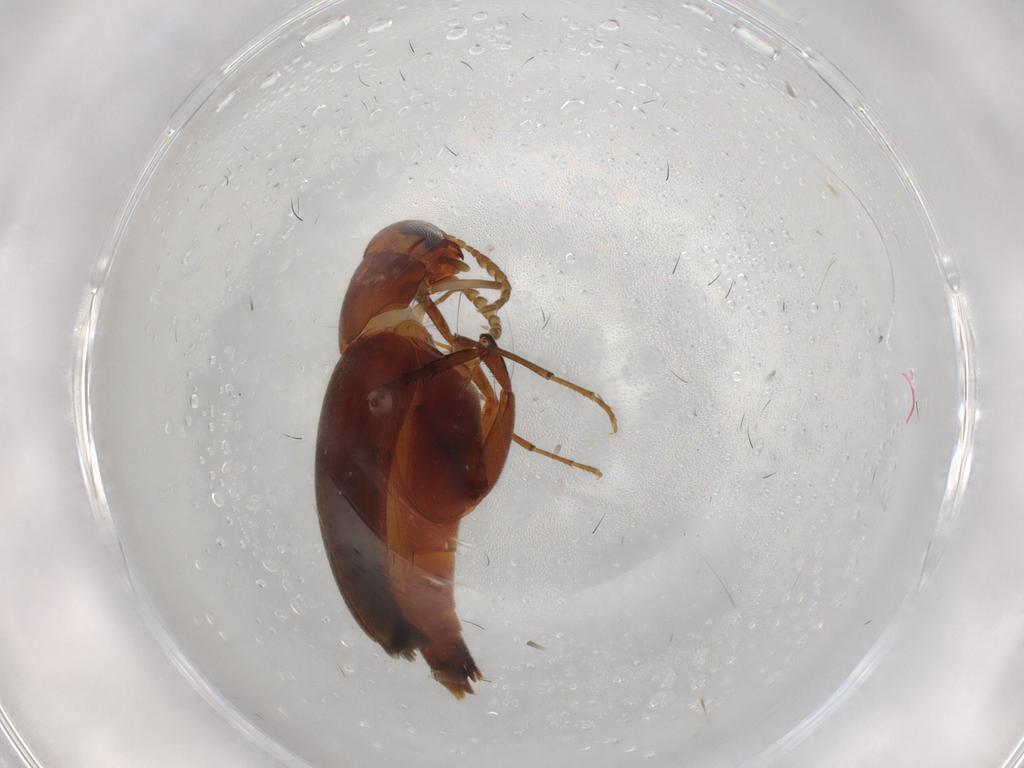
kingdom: Animalia
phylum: Arthropoda
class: Insecta
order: Coleoptera
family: Mordellidae
